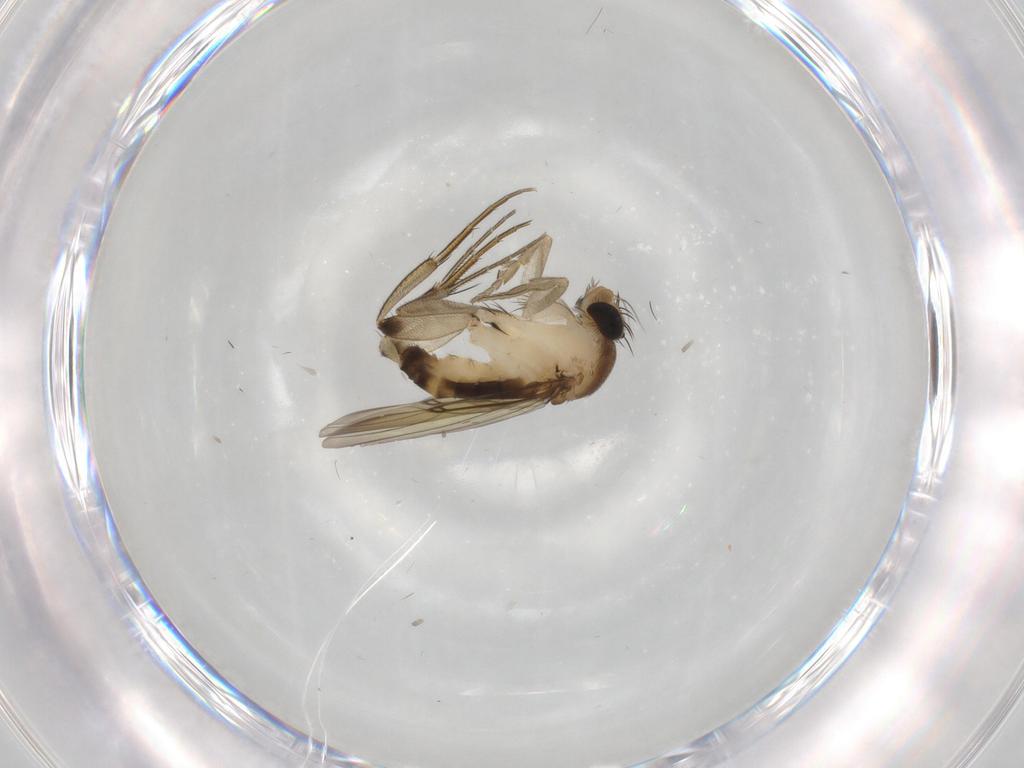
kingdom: Animalia
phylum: Arthropoda
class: Insecta
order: Diptera
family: Phoridae
